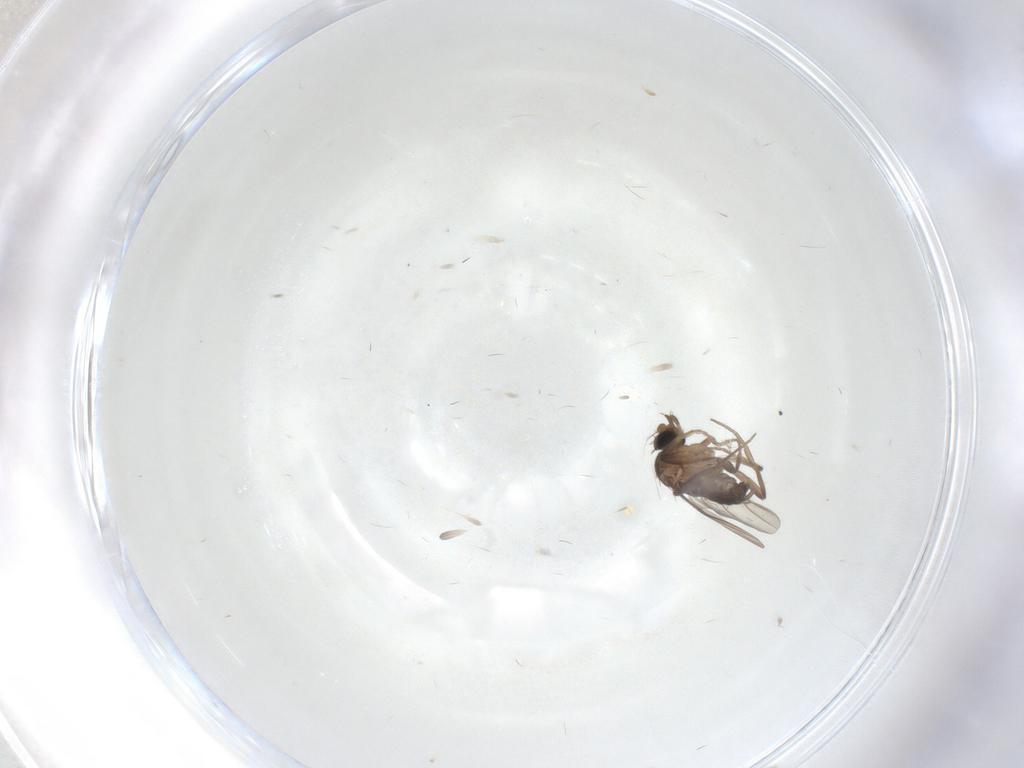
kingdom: Animalia
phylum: Arthropoda
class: Insecta
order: Diptera
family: Phoridae
